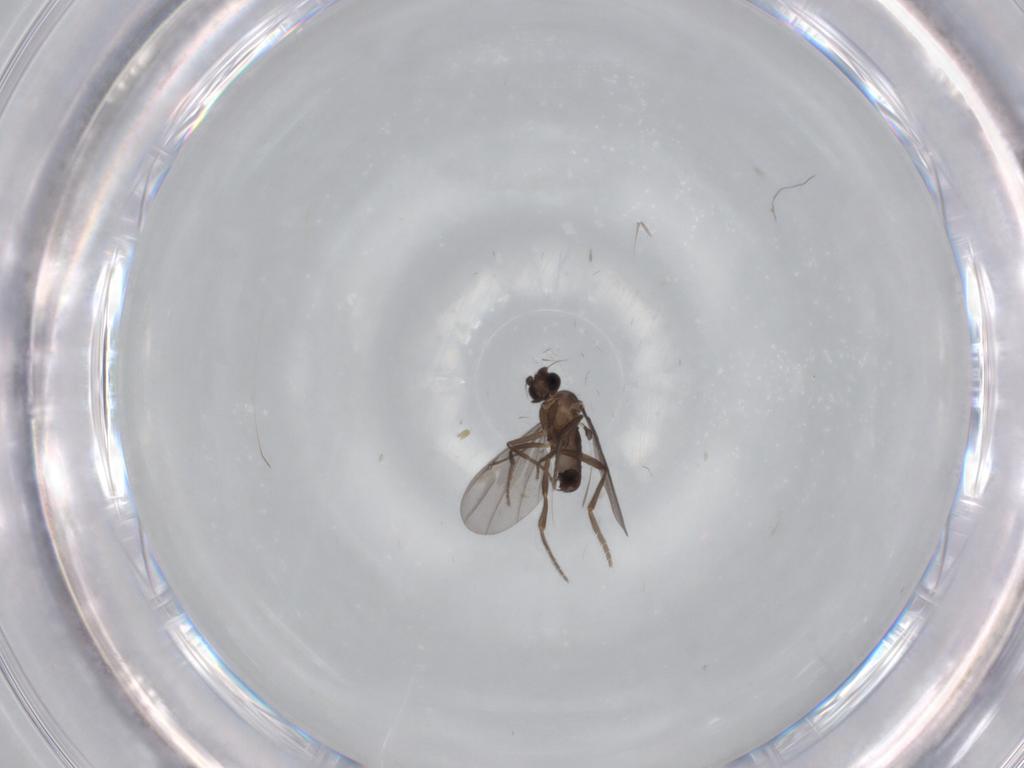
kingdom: Animalia
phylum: Arthropoda
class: Insecta
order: Diptera
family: Phoridae
